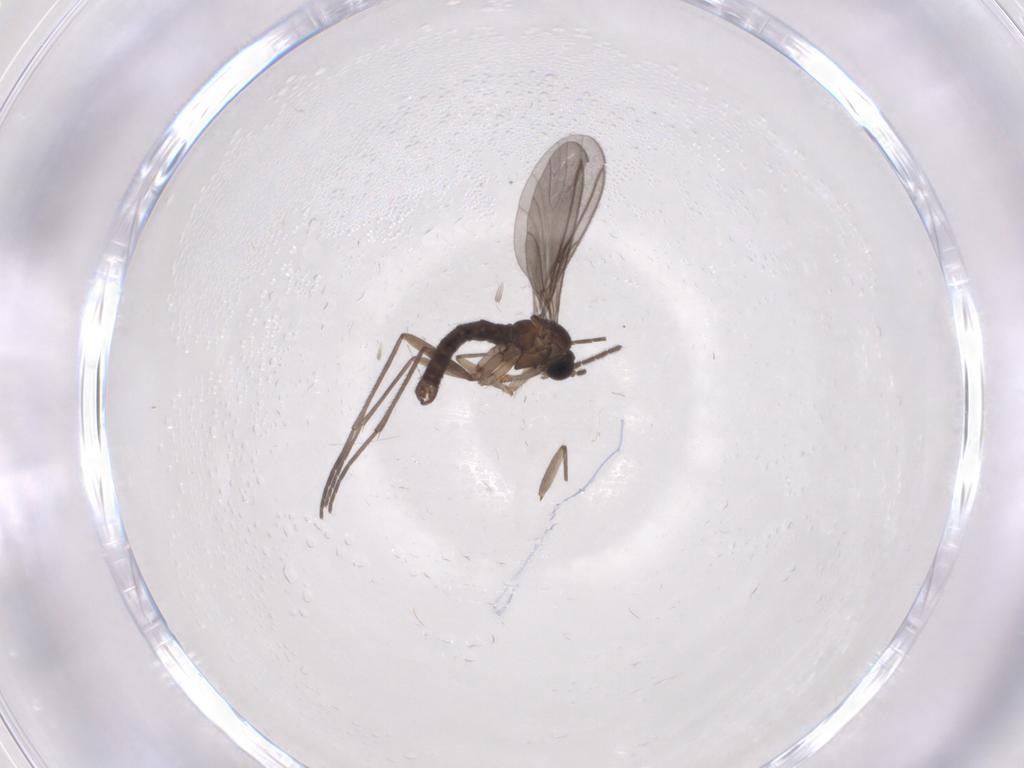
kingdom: Animalia
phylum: Arthropoda
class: Insecta
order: Diptera
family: Sciaridae
